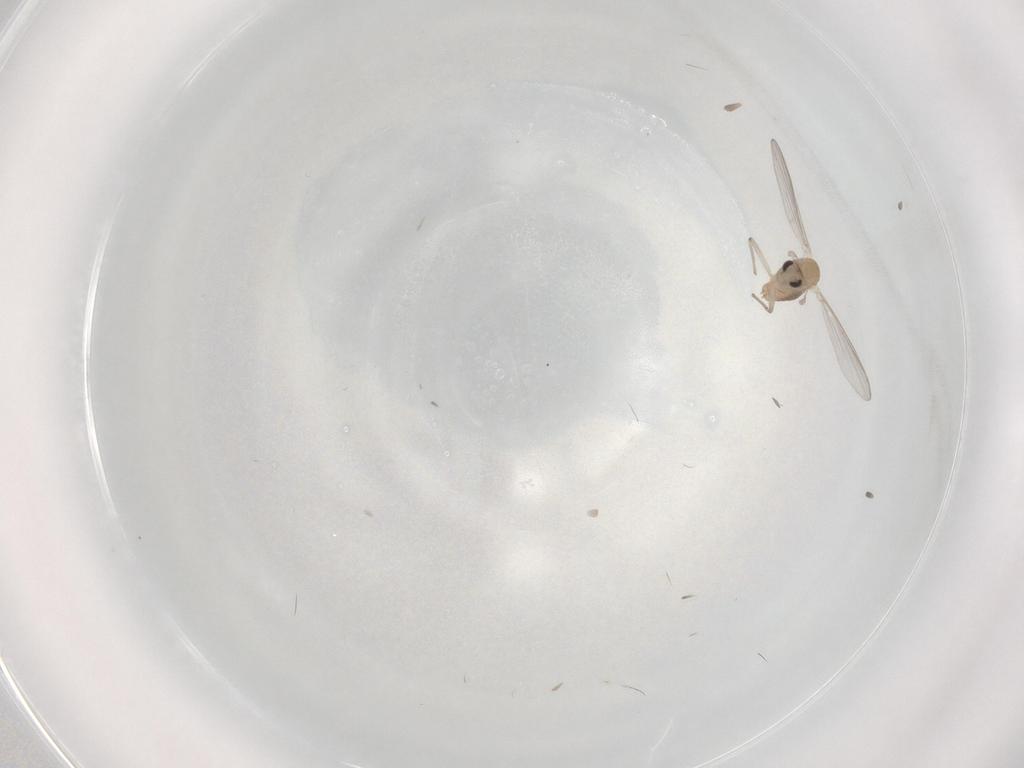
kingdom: Animalia
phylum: Arthropoda
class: Insecta
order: Diptera
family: Chironomidae
